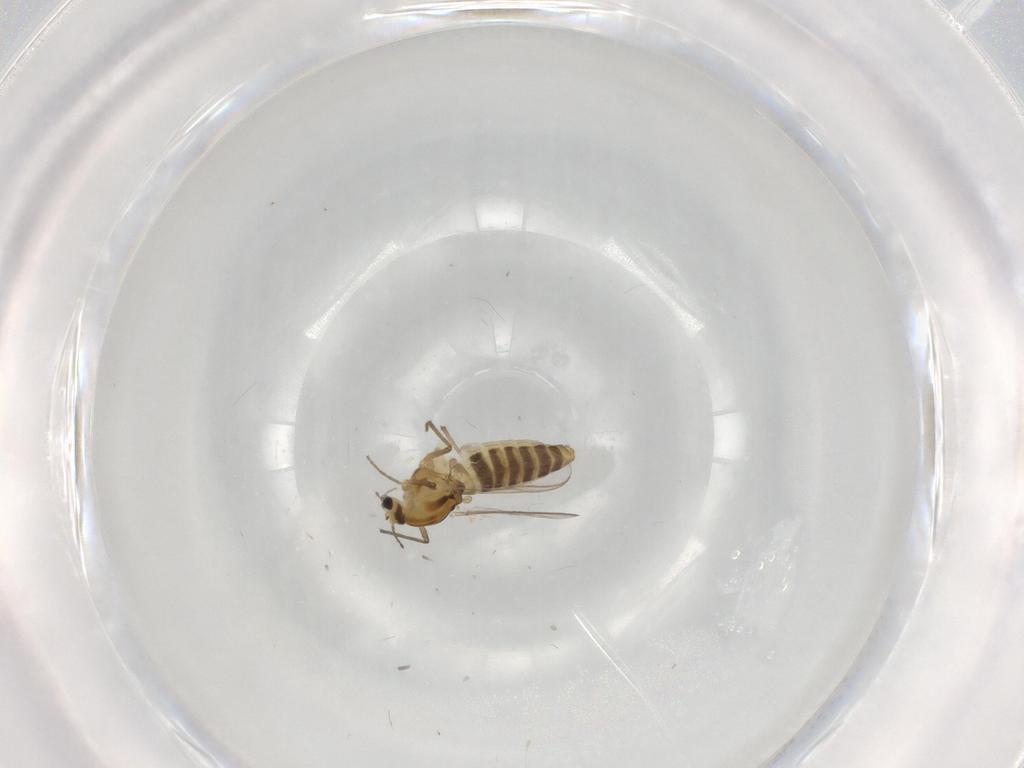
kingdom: Animalia
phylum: Arthropoda
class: Insecta
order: Diptera
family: Chironomidae
